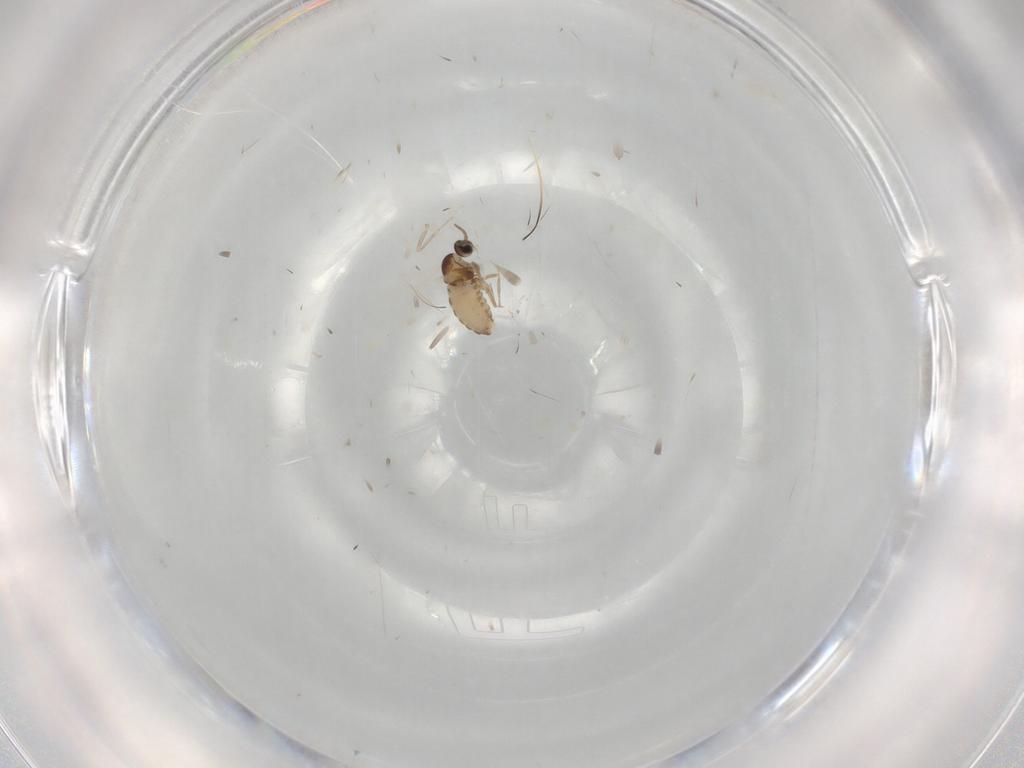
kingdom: Animalia
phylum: Arthropoda
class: Insecta
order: Diptera
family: Cecidomyiidae
